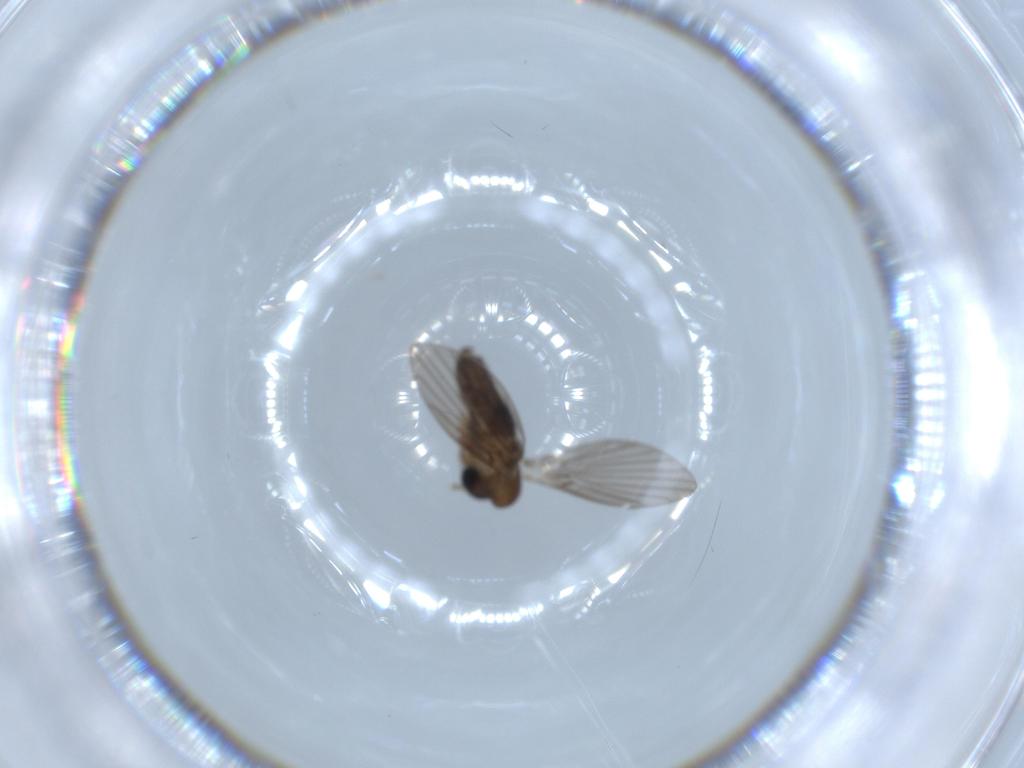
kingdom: Animalia
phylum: Arthropoda
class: Insecta
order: Diptera
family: Psychodidae
